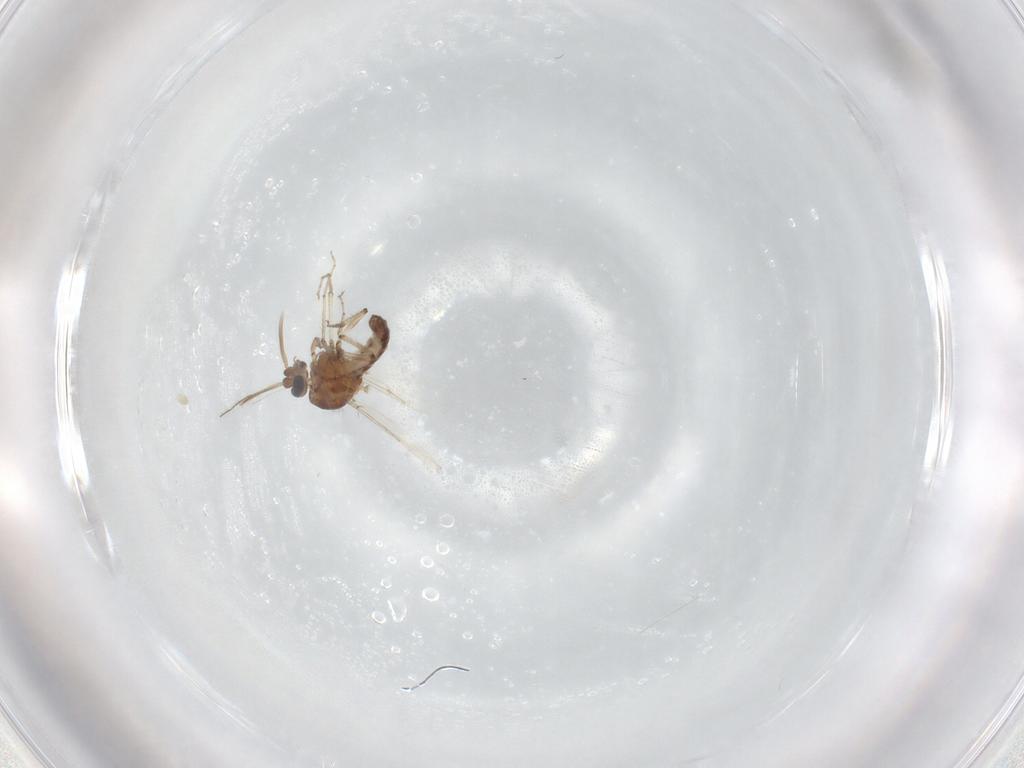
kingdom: Animalia
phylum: Arthropoda
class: Insecta
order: Diptera
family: Ceratopogonidae
